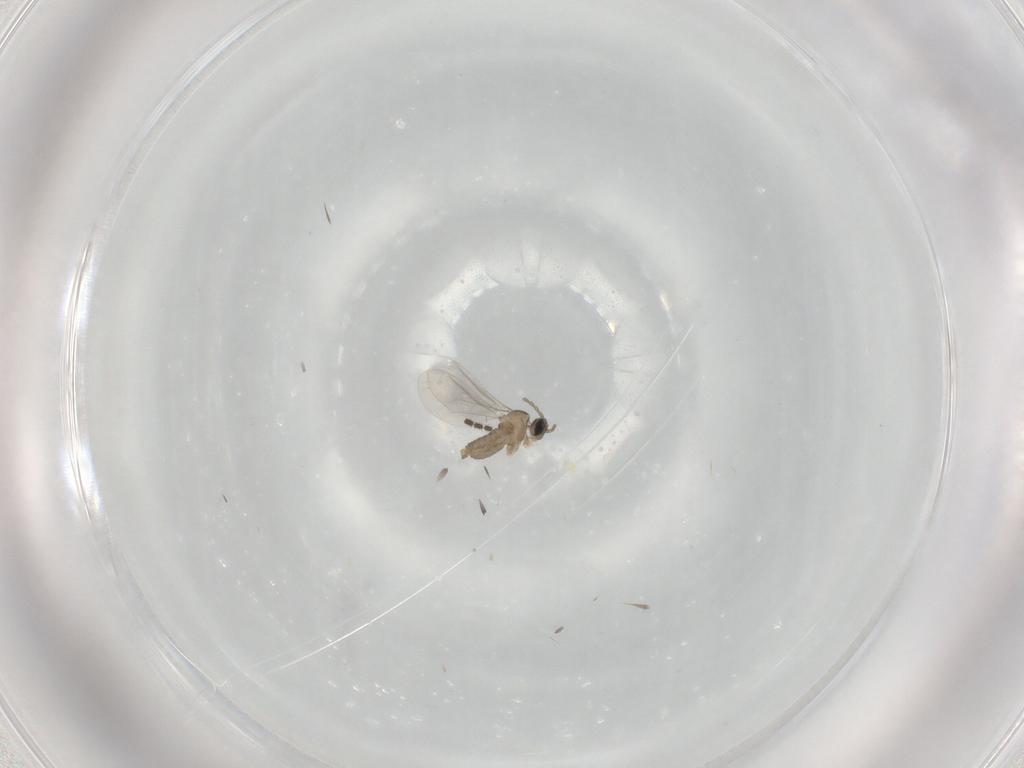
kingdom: Animalia
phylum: Arthropoda
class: Insecta
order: Diptera
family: Cecidomyiidae
